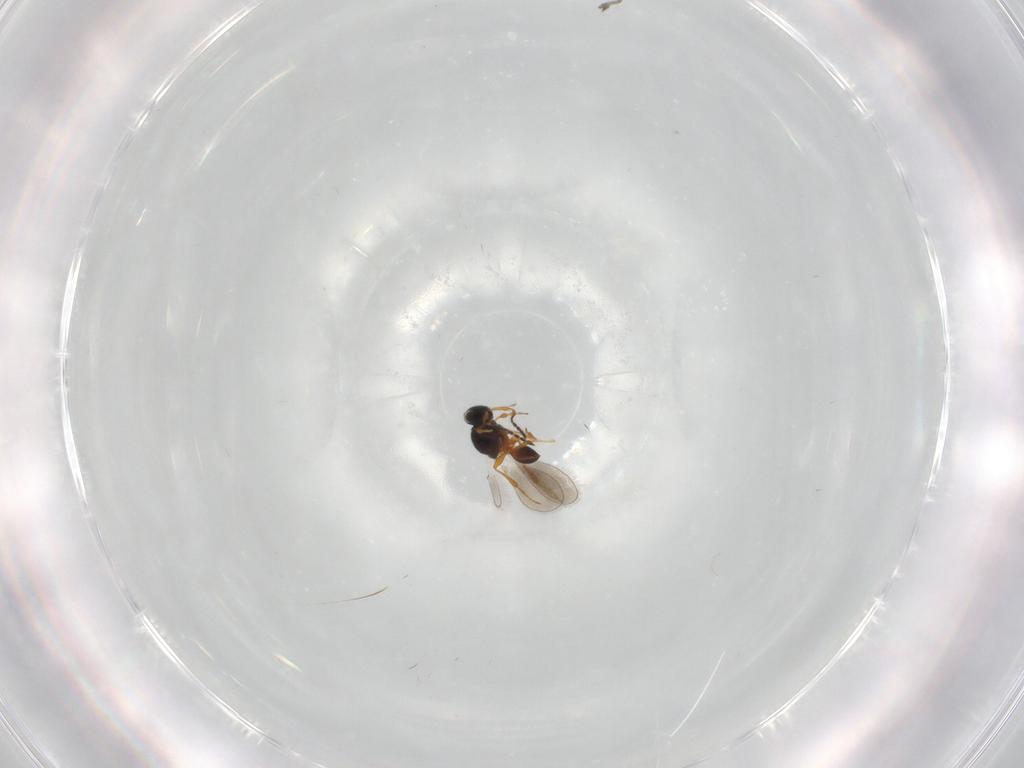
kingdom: Animalia
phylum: Arthropoda
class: Insecta
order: Hymenoptera
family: Platygastridae
